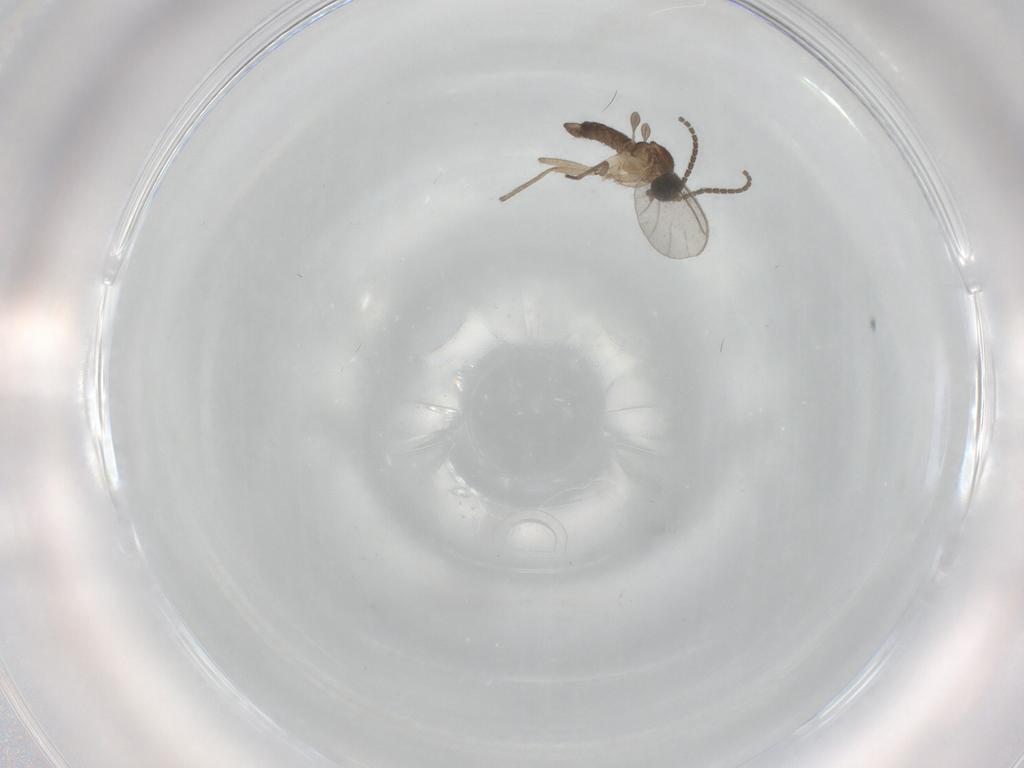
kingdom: Animalia
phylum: Arthropoda
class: Insecta
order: Diptera
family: Sciaridae
